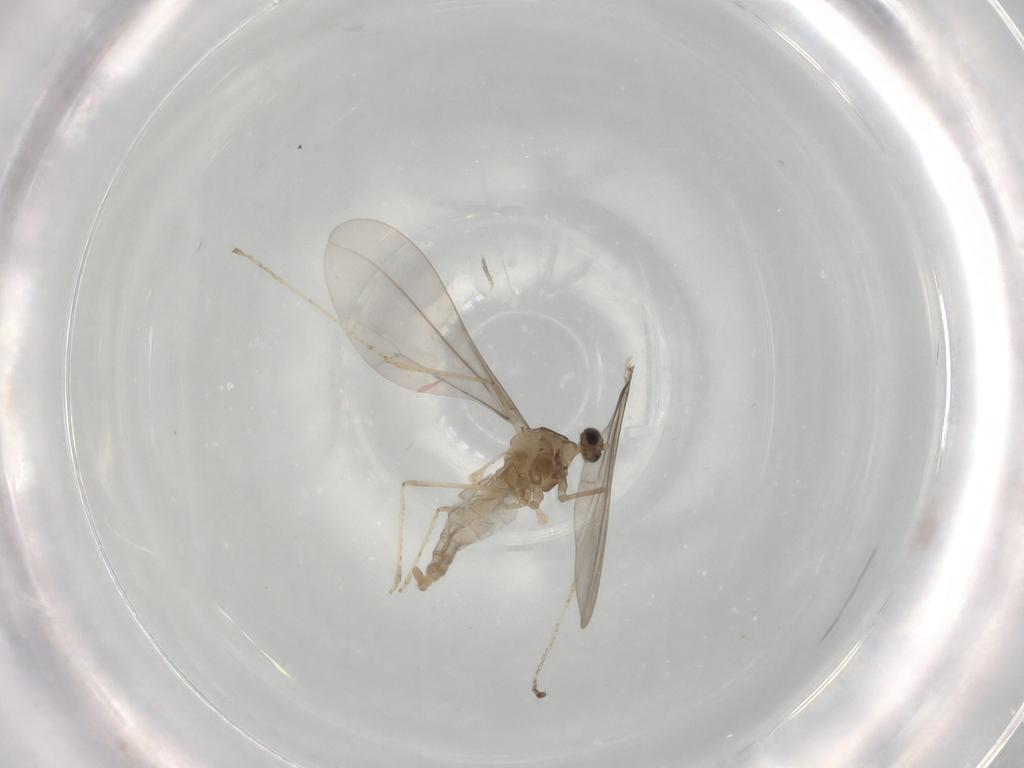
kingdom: Animalia
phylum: Arthropoda
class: Insecta
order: Diptera
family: Cecidomyiidae
